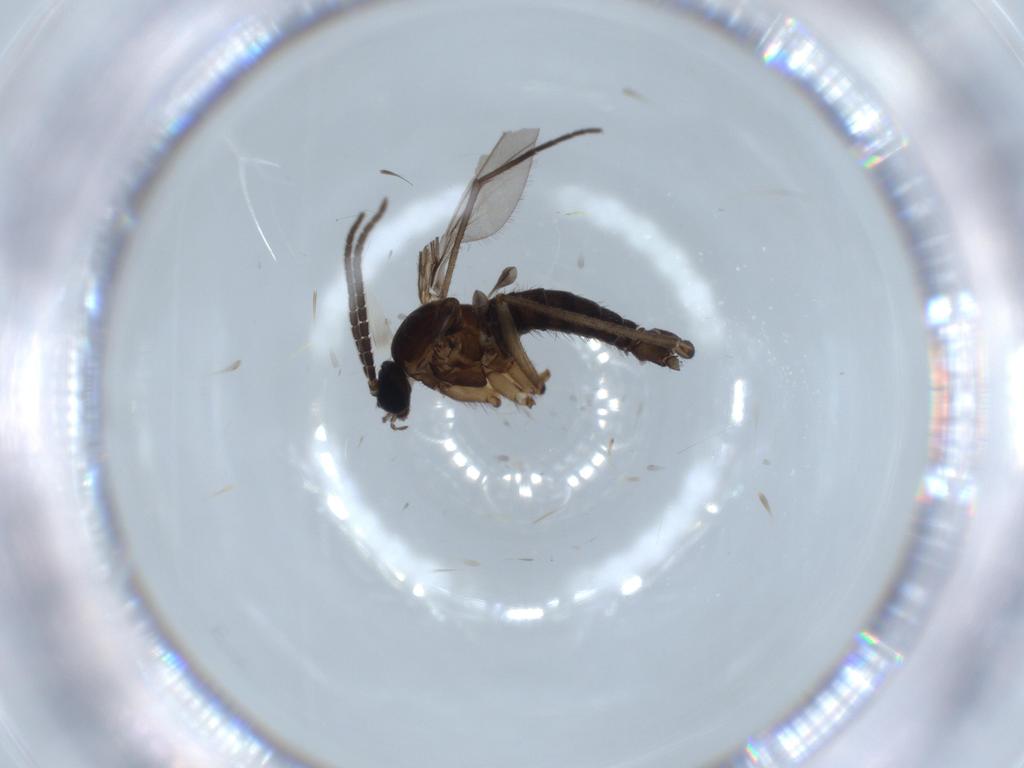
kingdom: Animalia
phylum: Arthropoda
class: Insecta
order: Diptera
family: Sciaridae
